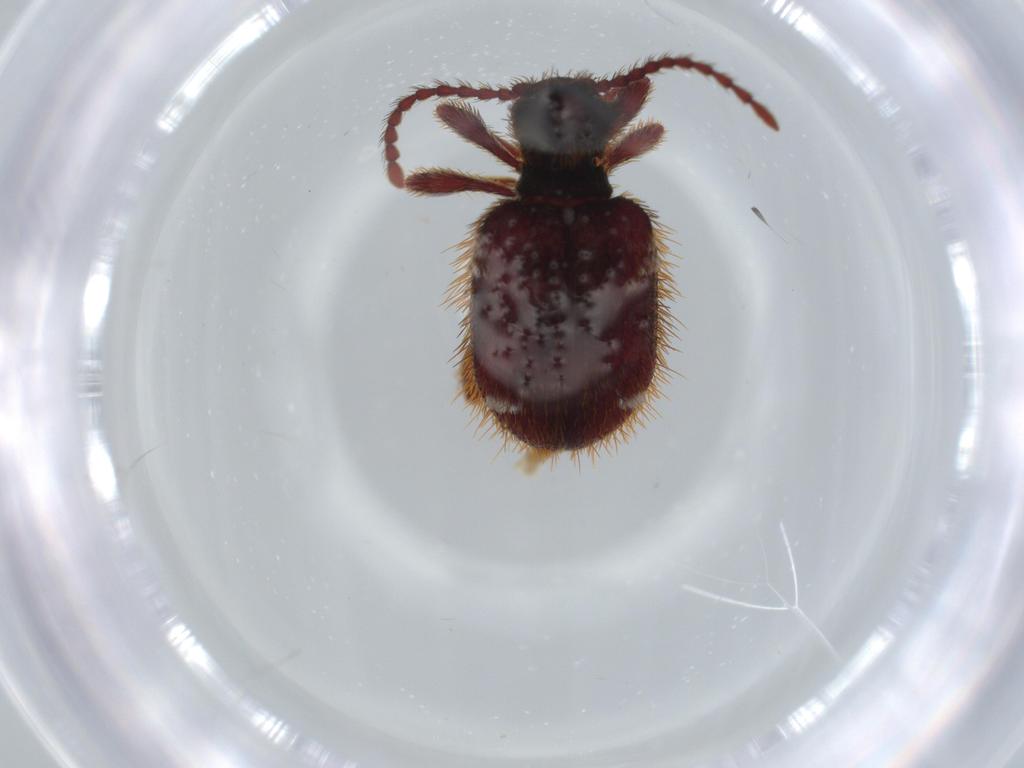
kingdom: Animalia
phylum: Arthropoda
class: Insecta
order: Coleoptera
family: Ptinidae
